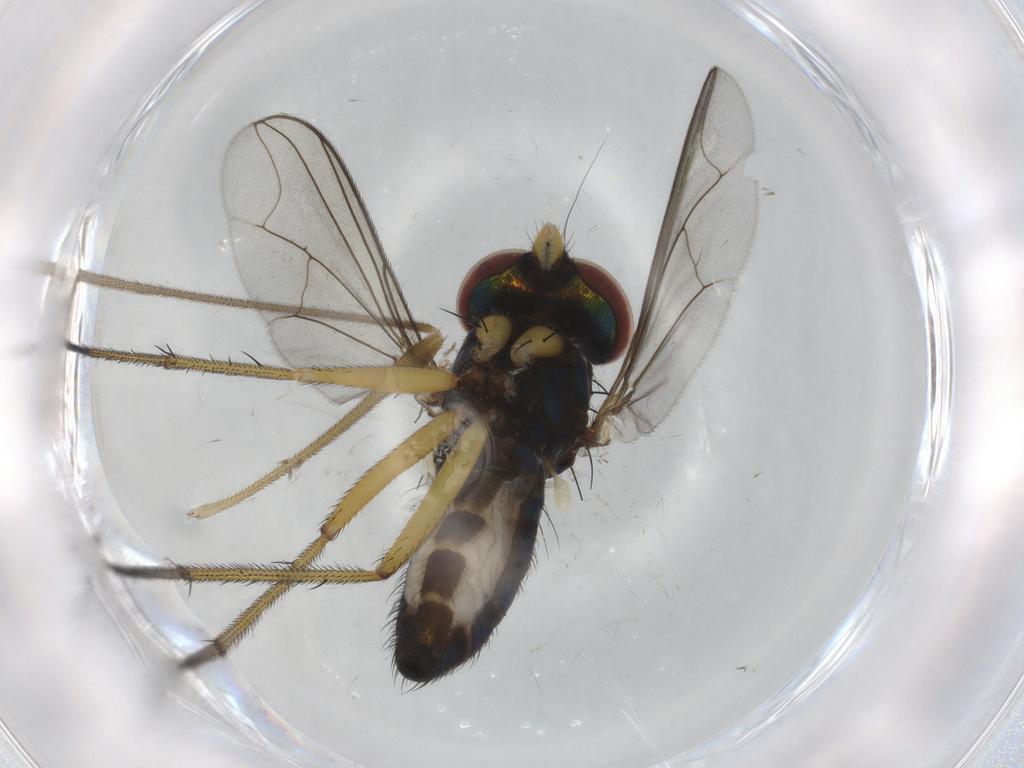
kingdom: Animalia
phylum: Arthropoda
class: Insecta
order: Diptera
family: Dolichopodidae
